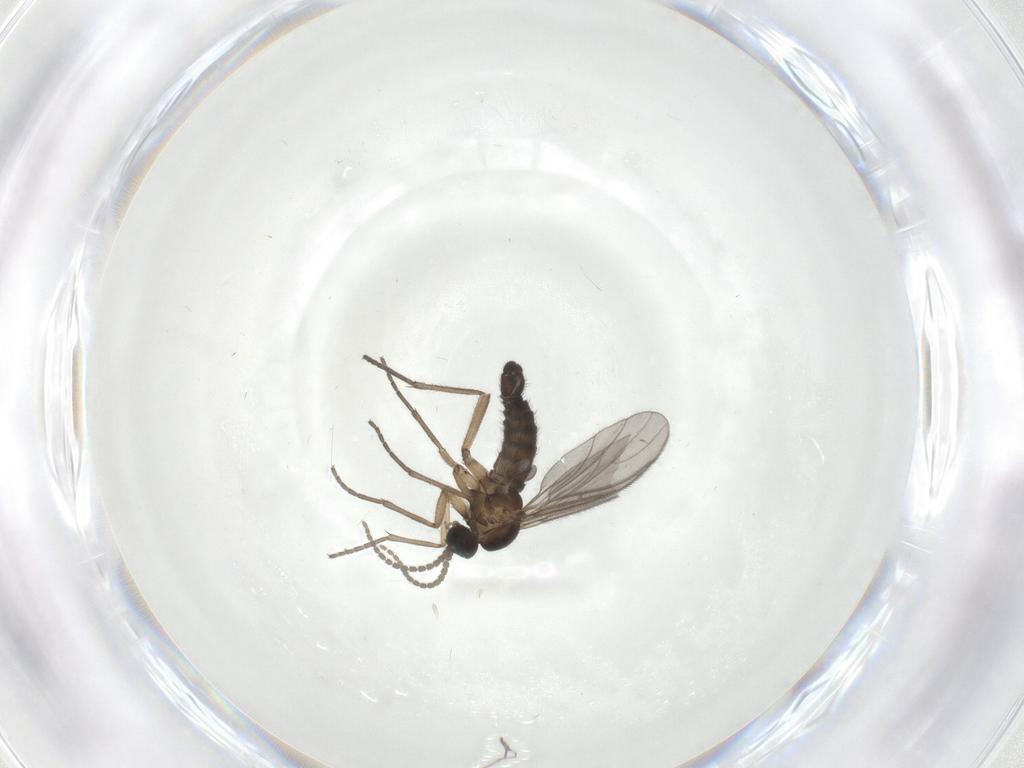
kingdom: Animalia
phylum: Arthropoda
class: Insecta
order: Diptera
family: Sciaridae
